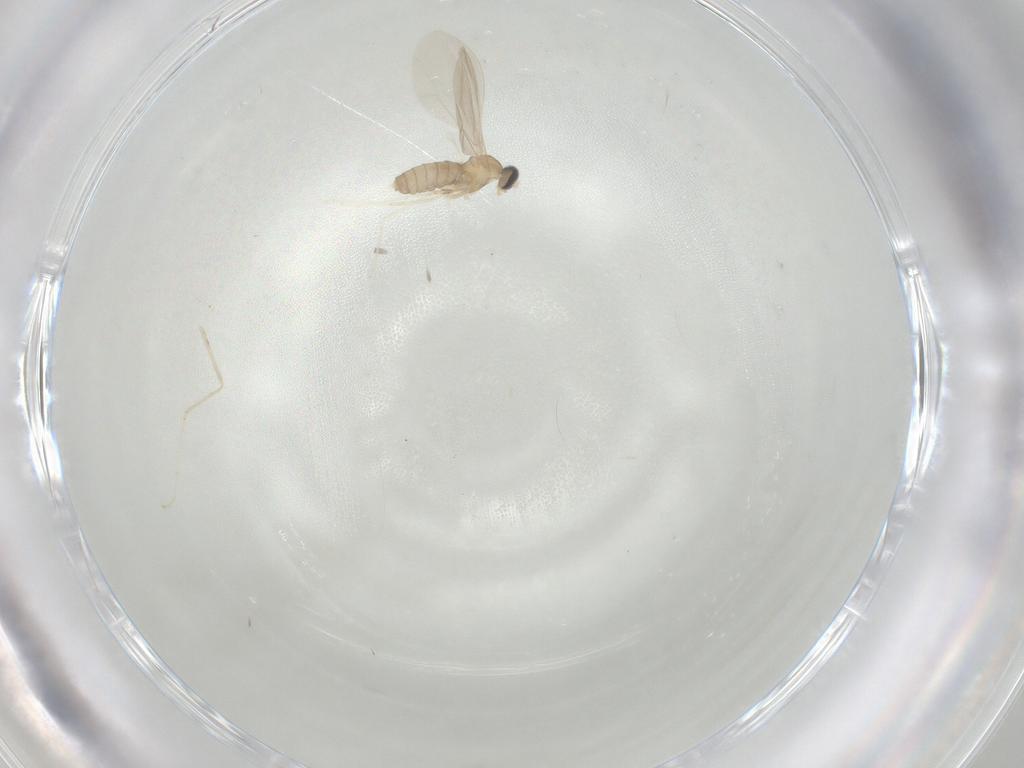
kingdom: Animalia
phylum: Arthropoda
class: Insecta
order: Diptera
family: Cecidomyiidae
